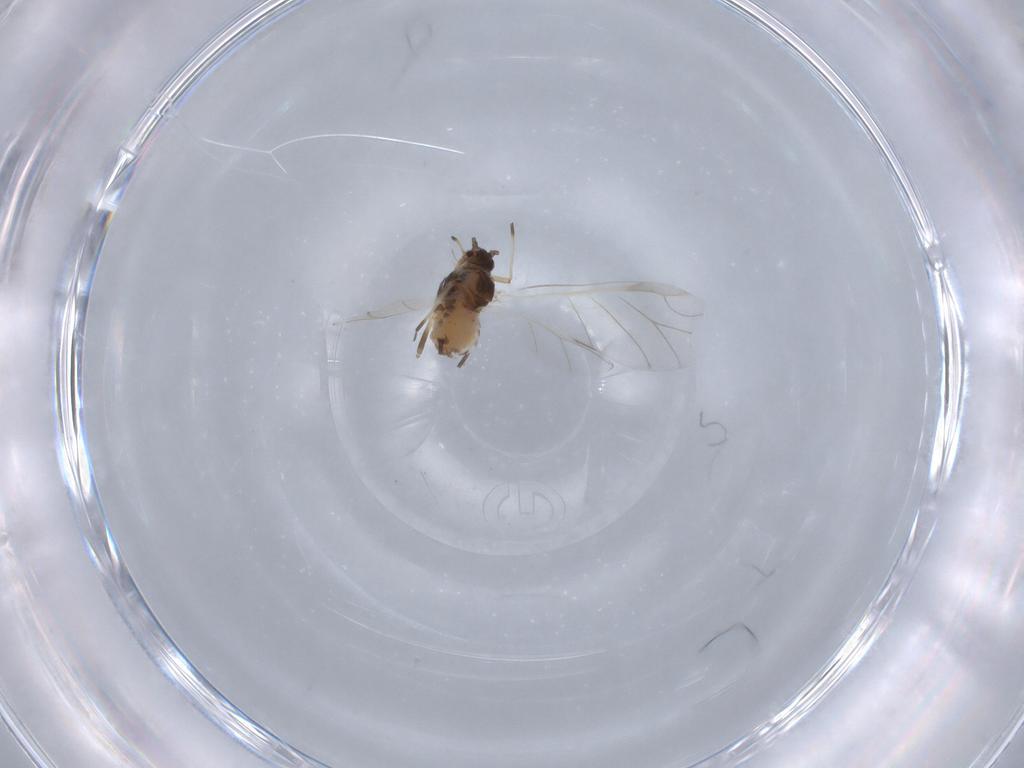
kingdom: Animalia
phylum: Arthropoda
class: Insecta
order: Hemiptera
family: Aphididae
